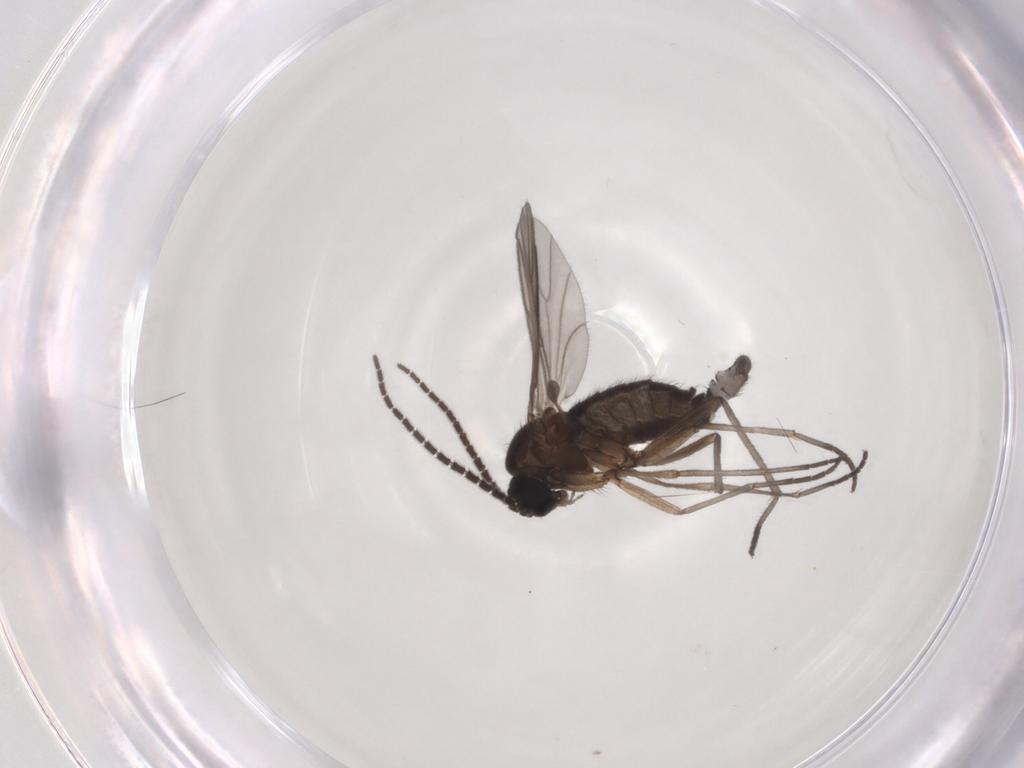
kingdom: Animalia
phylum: Arthropoda
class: Insecta
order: Diptera
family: Sciaridae
